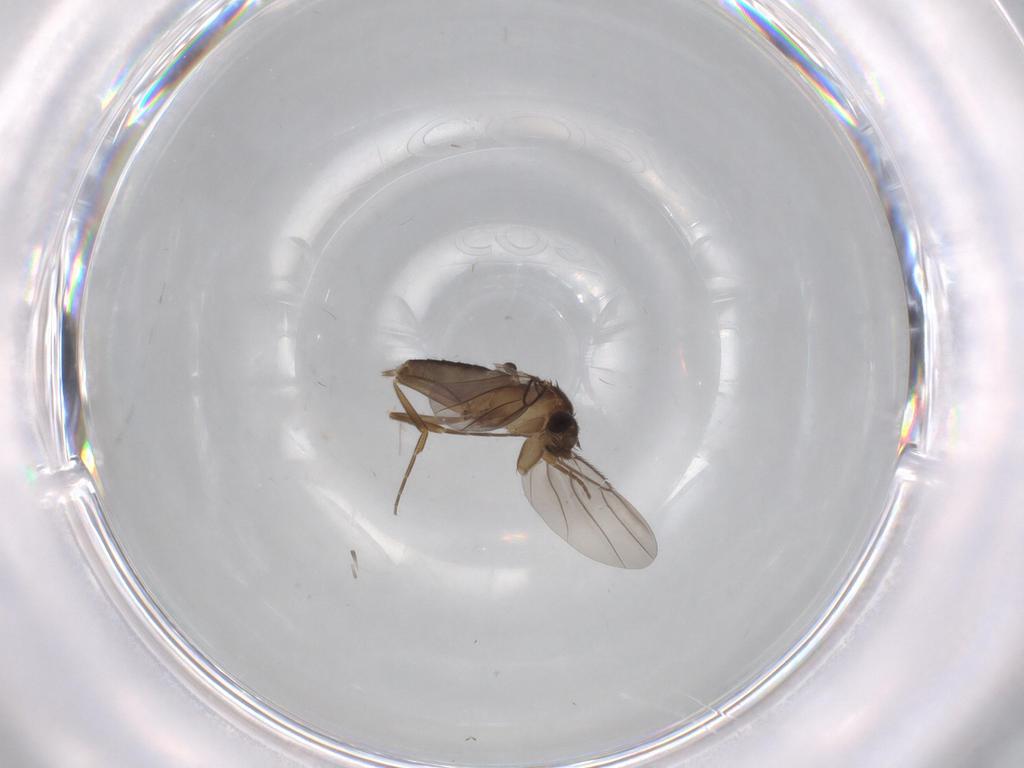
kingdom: Animalia
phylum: Arthropoda
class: Insecta
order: Diptera
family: Phoridae
